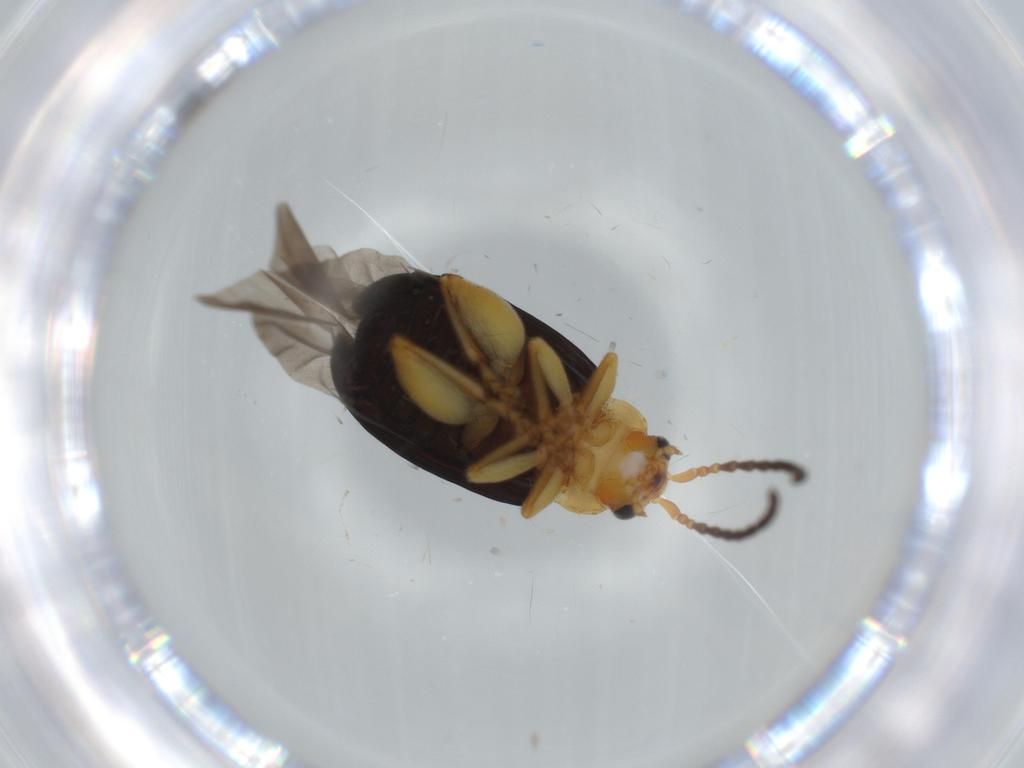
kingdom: Animalia
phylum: Arthropoda
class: Insecta
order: Coleoptera
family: Chrysomelidae
